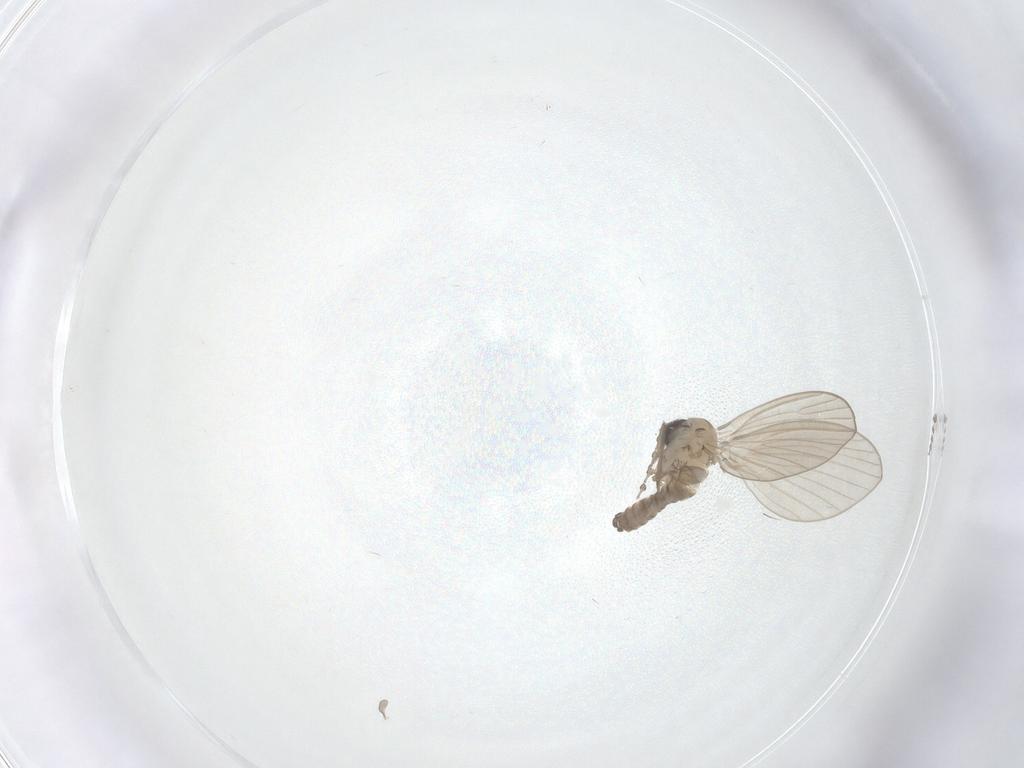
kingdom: Animalia
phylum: Arthropoda
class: Insecta
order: Diptera
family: Psychodidae
